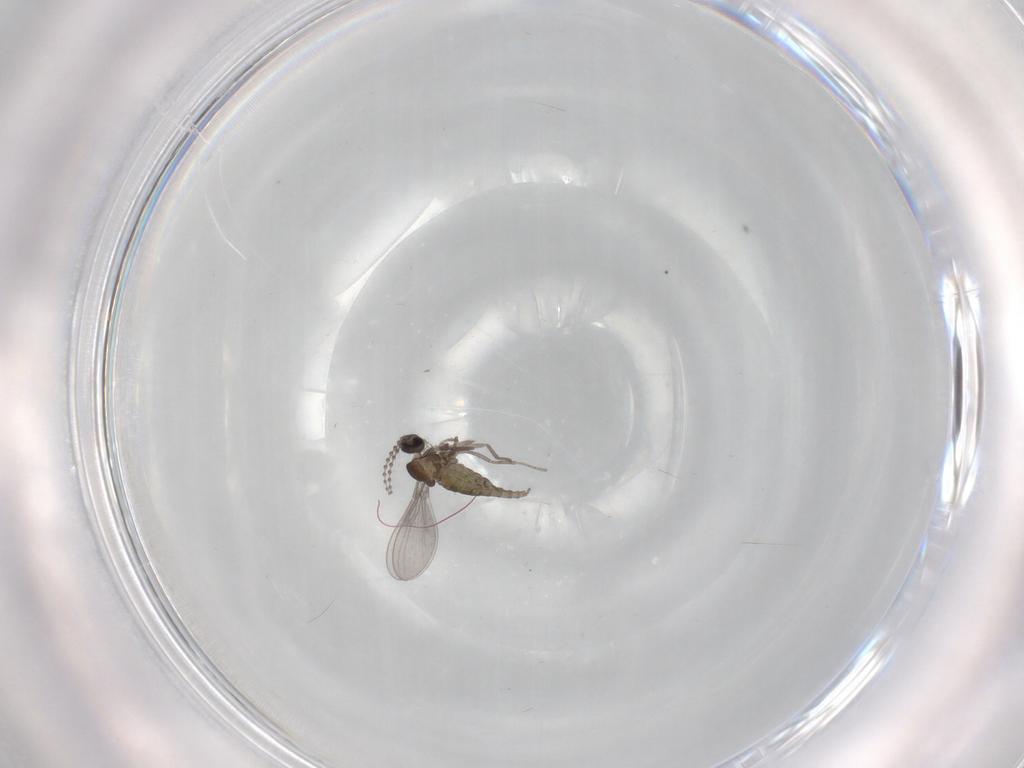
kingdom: Animalia
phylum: Arthropoda
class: Insecta
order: Diptera
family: Cecidomyiidae
